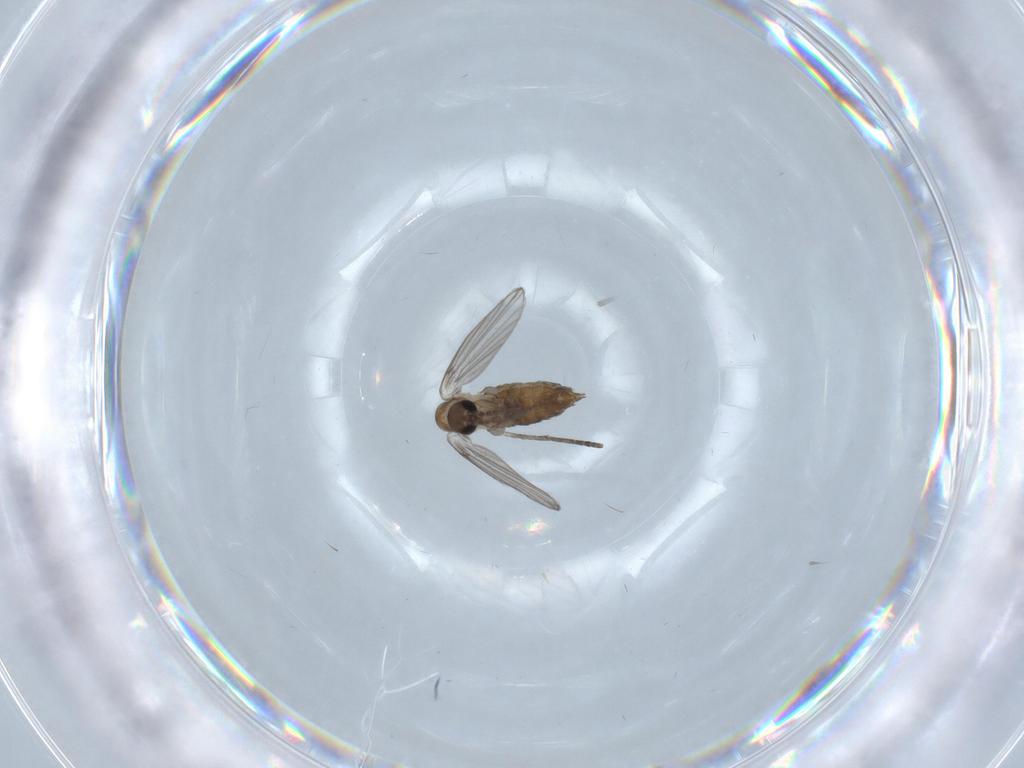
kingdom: Animalia
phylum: Arthropoda
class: Insecta
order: Diptera
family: Psychodidae
